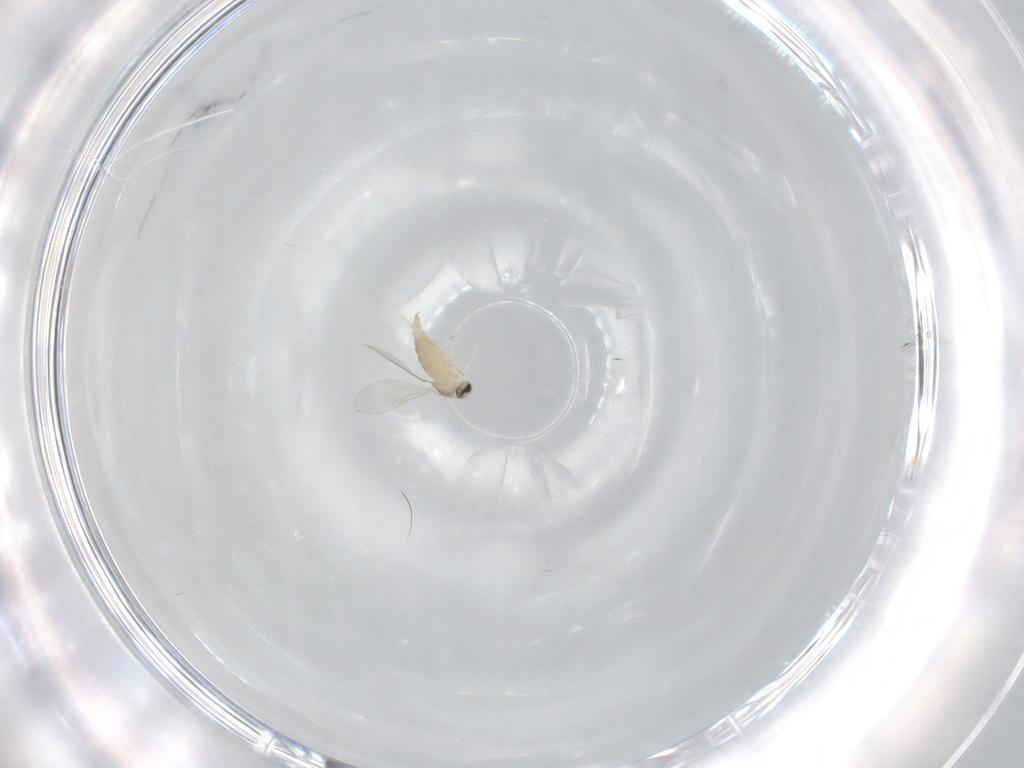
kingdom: Animalia
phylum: Arthropoda
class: Insecta
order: Diptera
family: Cecidomyiidae
